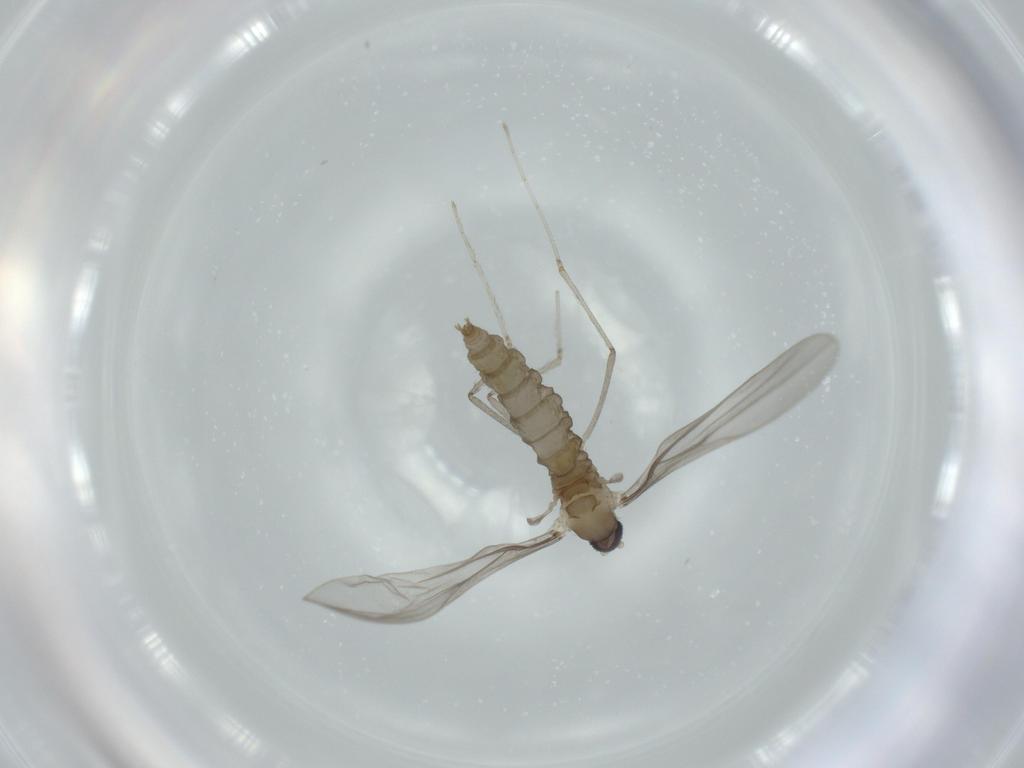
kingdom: Animalia
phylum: Arthropoda
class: Insecta
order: Diptera
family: Cecidomyiidae
